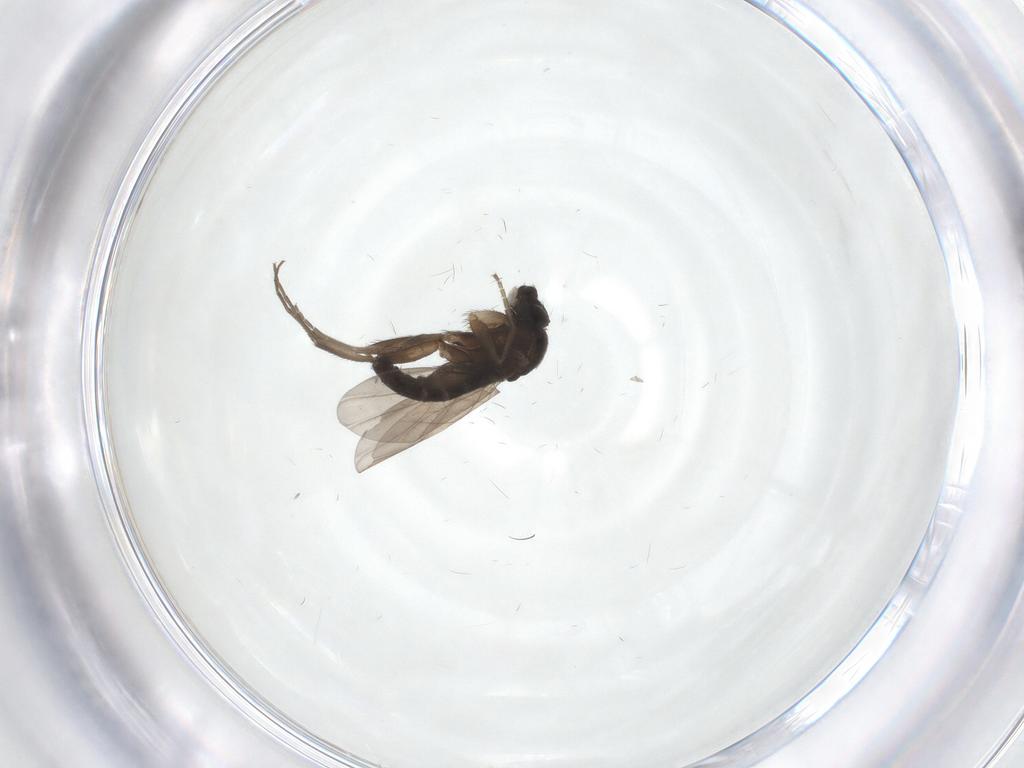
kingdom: Animalia
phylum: Arthropoda
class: Insecta
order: Diptera
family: Phoridae
